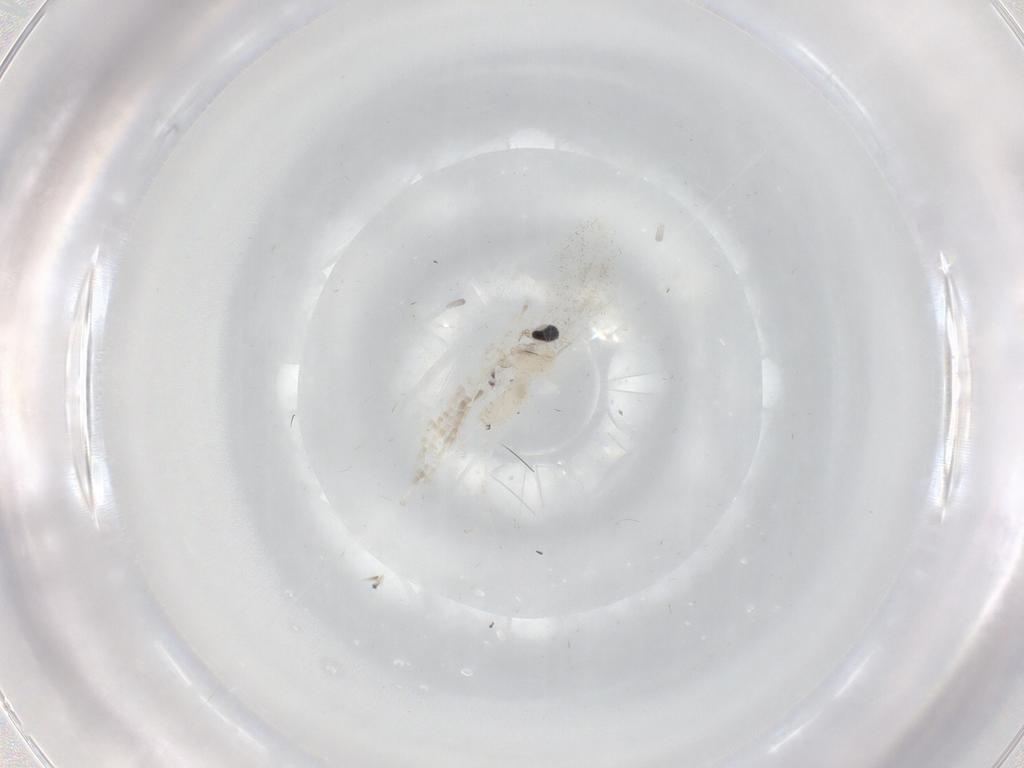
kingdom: Animalia
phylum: Arthropoda
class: Insecta
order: Diptera
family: Cecidomyiidae
